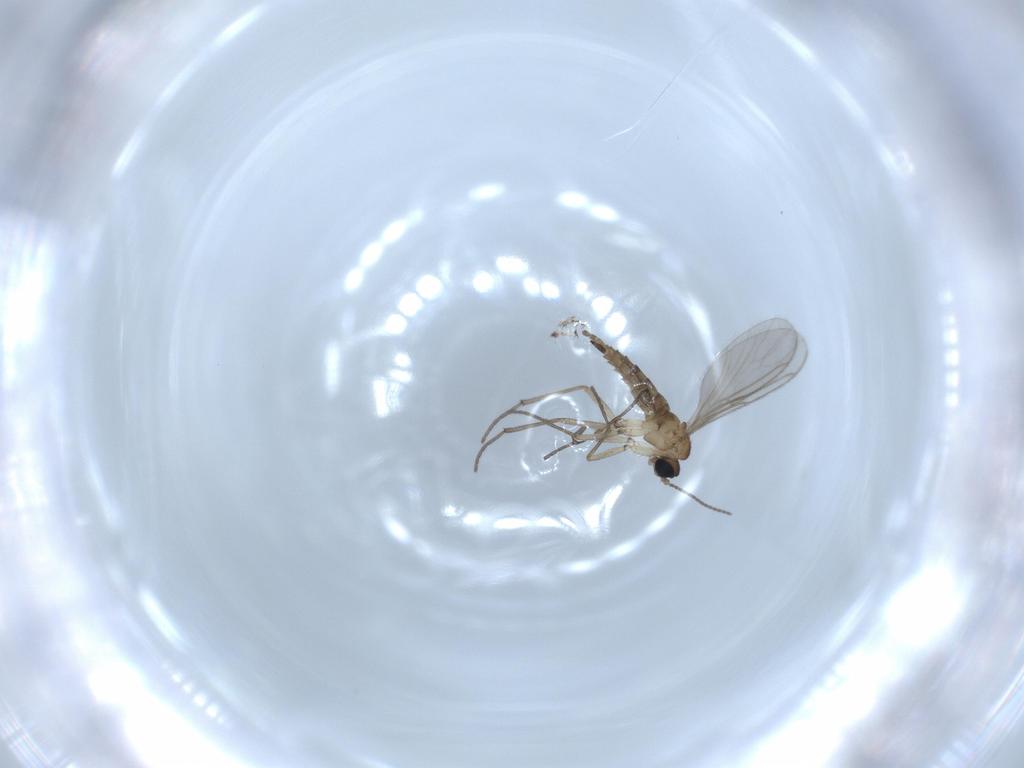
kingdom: Animalia
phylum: Arthropoda
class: Insecta
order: Diptera
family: Sciaridae
